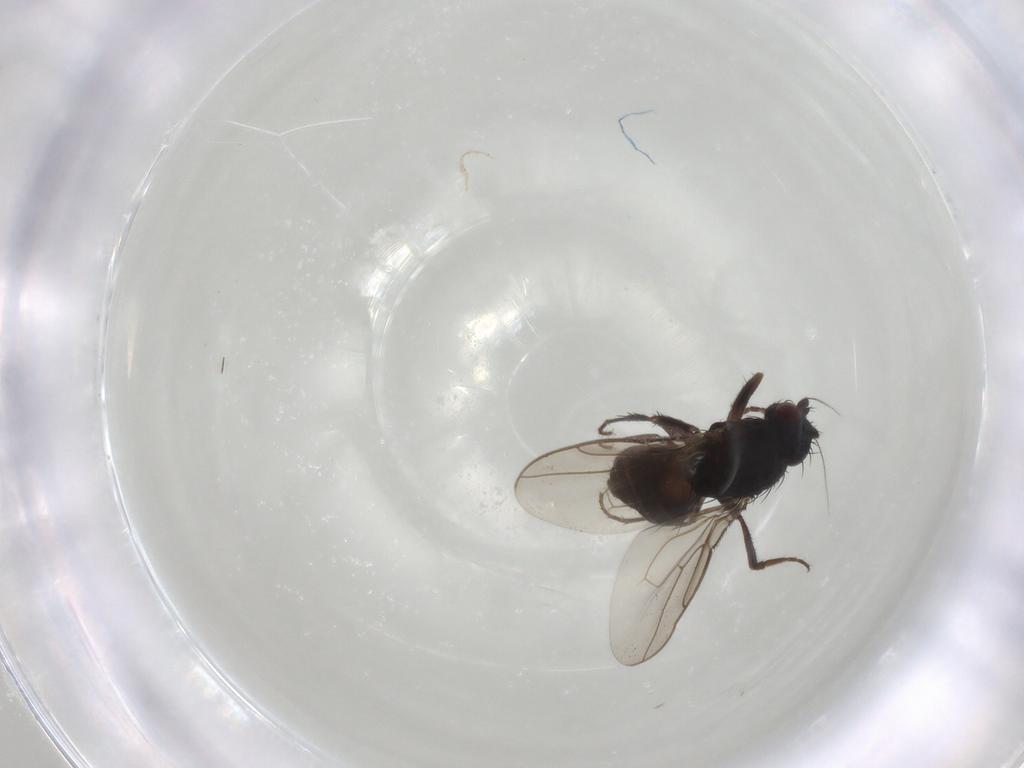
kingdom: Animalia
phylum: Arthropoda
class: Insecta
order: Diptera
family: Sphaeroceridae
